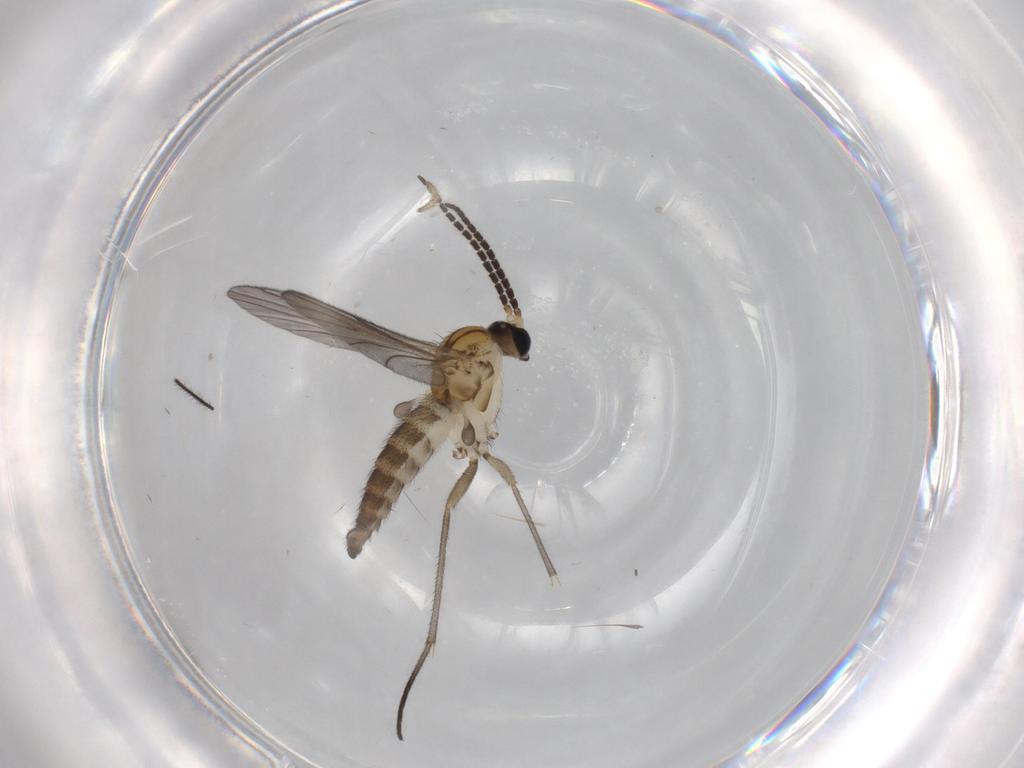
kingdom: Animalia
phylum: Arthropoda
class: Insecta
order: Diptera
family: Sciaridae
